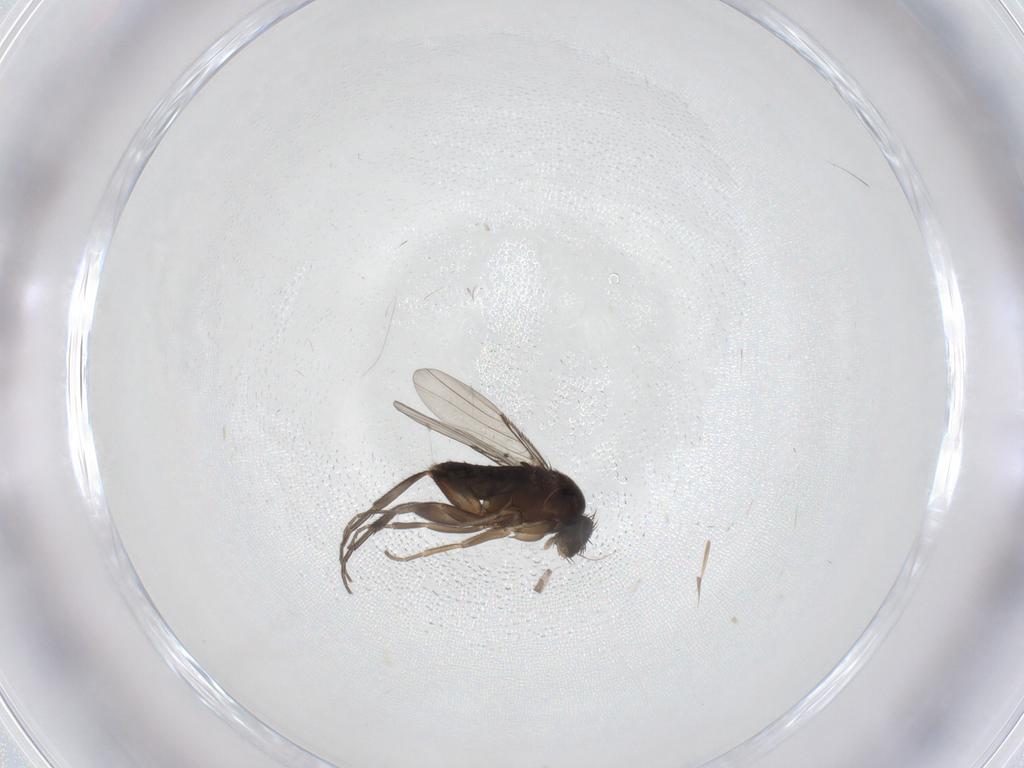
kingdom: Animalia
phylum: Arthropoda
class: Insecta
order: Diptera
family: Phoridae
